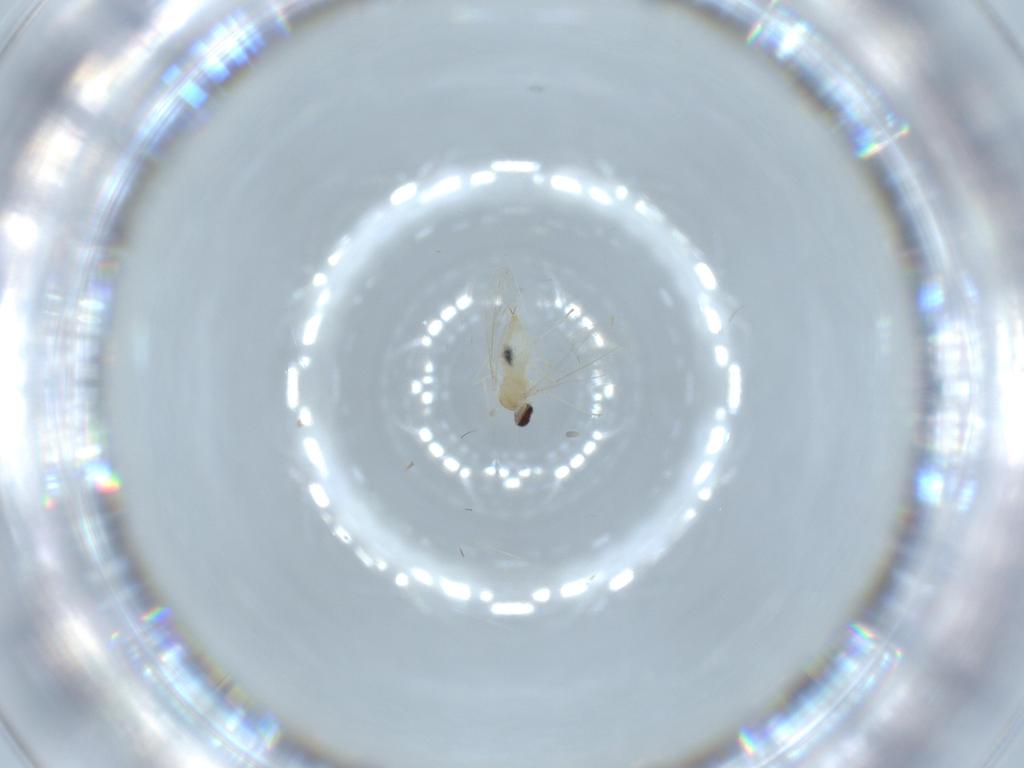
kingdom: Animalia
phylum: Arthropoda
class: Insecta
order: Diptera
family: Cecidomyiidae
